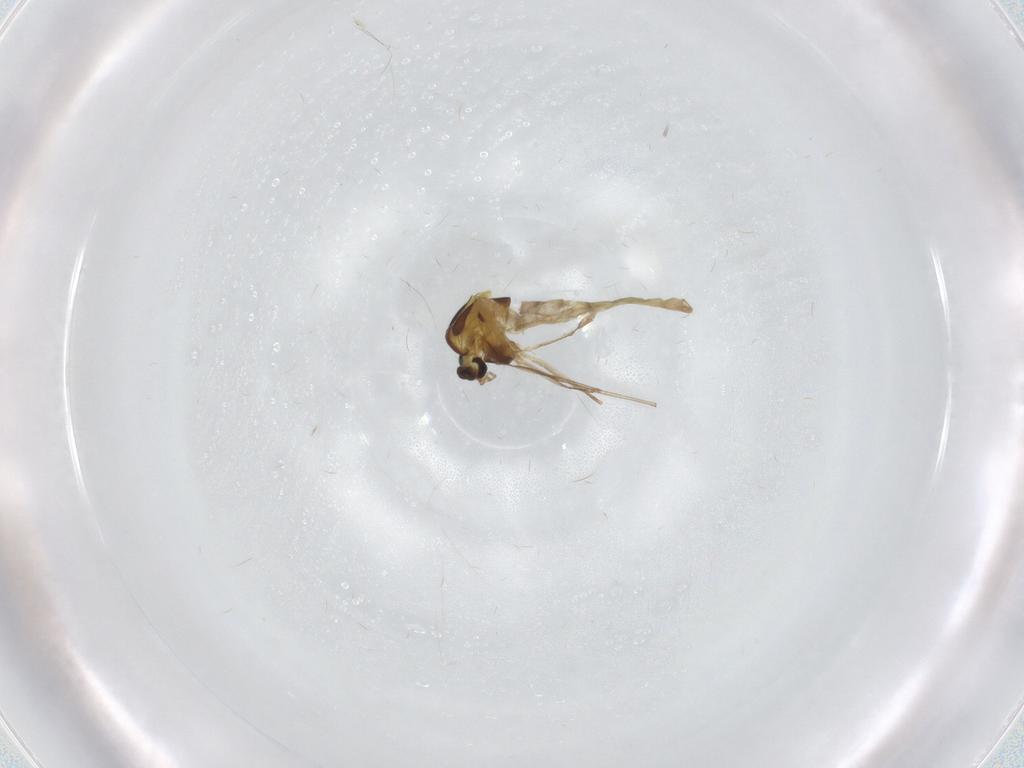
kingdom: Animalia
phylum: Arthropoda
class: Insecta
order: Diptera
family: Chironomidae
